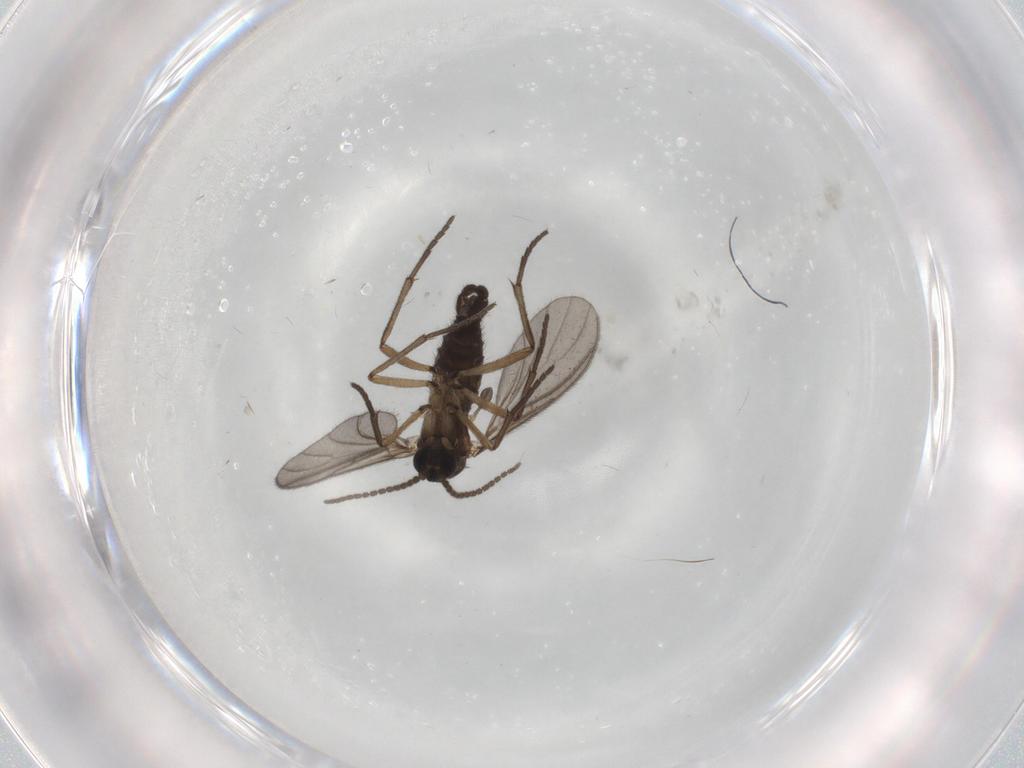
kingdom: Animalia
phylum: Arthropoda
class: Insecta
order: Diptera
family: Sciaridae
